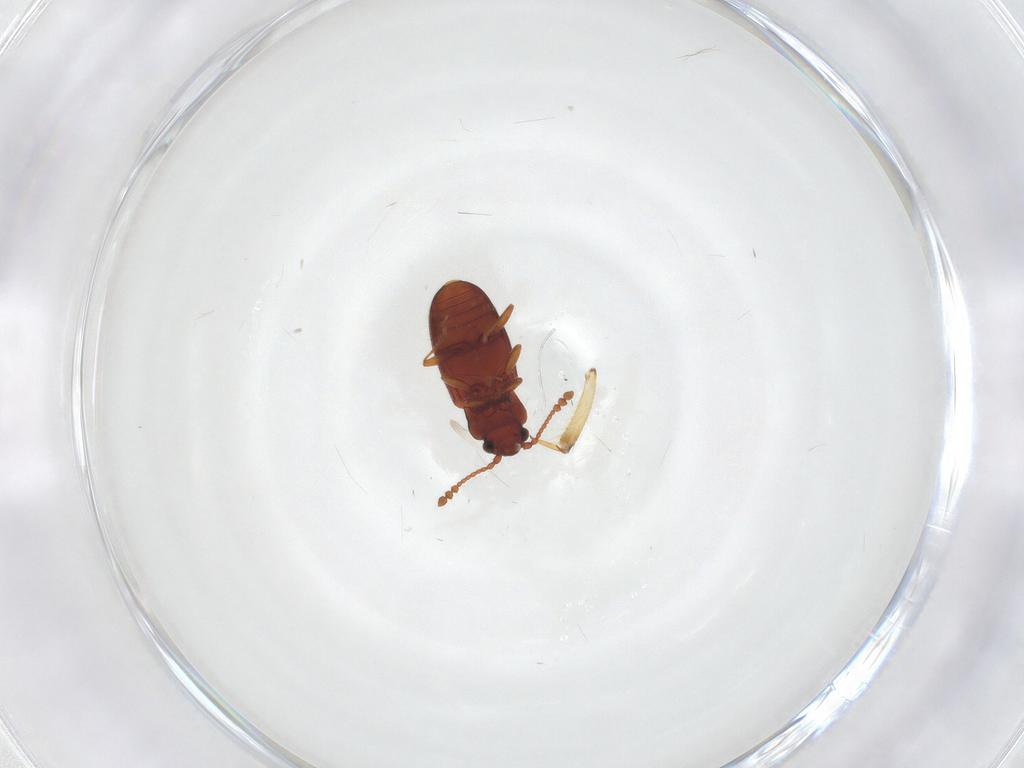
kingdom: Animalia
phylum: Arthropoda
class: Insecta
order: Coleoptera
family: Cryptophagidae
